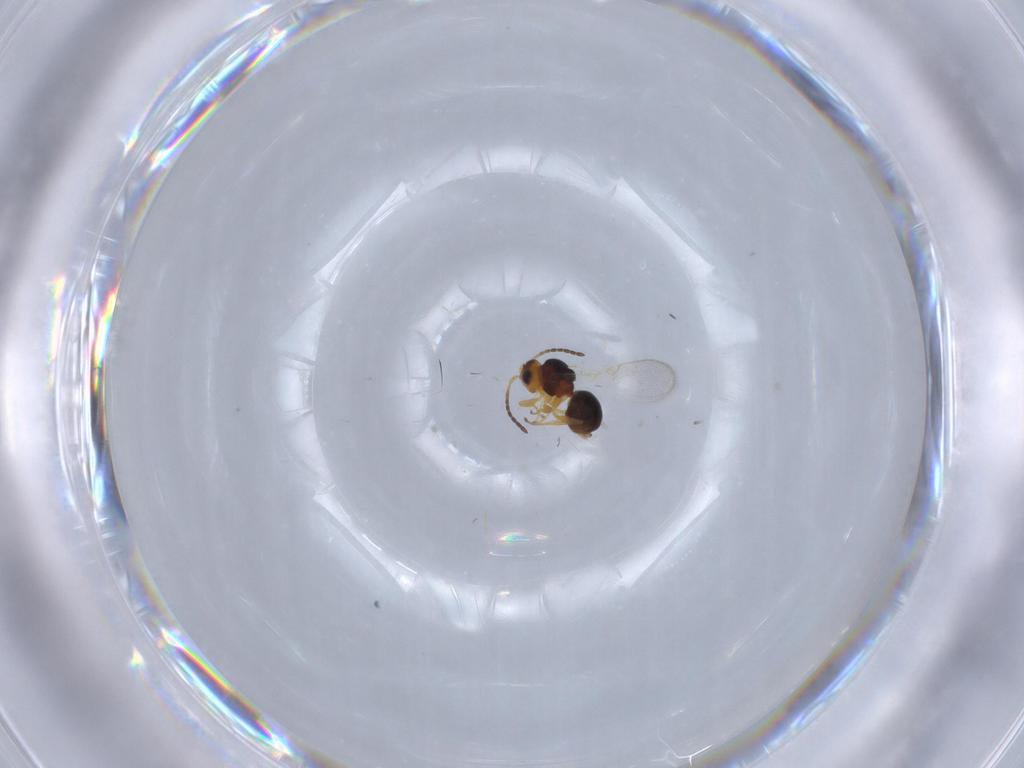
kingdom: Animalia
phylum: Arthropoda
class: Insecta
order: Hymenoptera
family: Figitidae
